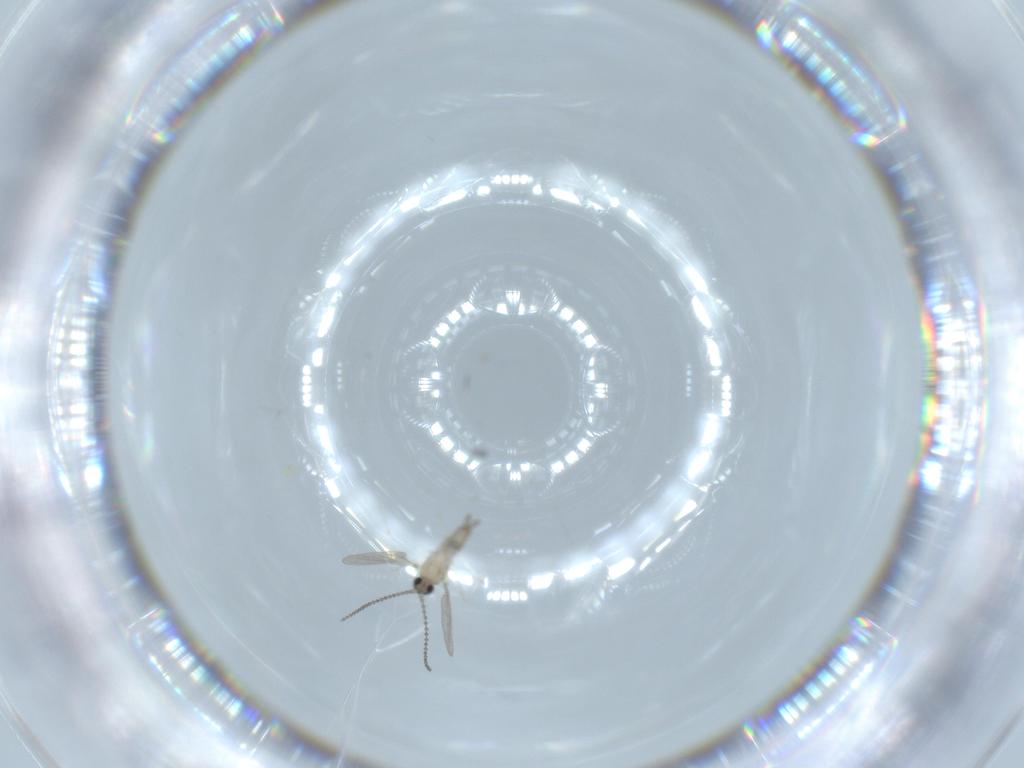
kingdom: Animalia
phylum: Arthropoda
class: Insecta
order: Diptera
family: Cecidomyiidae
